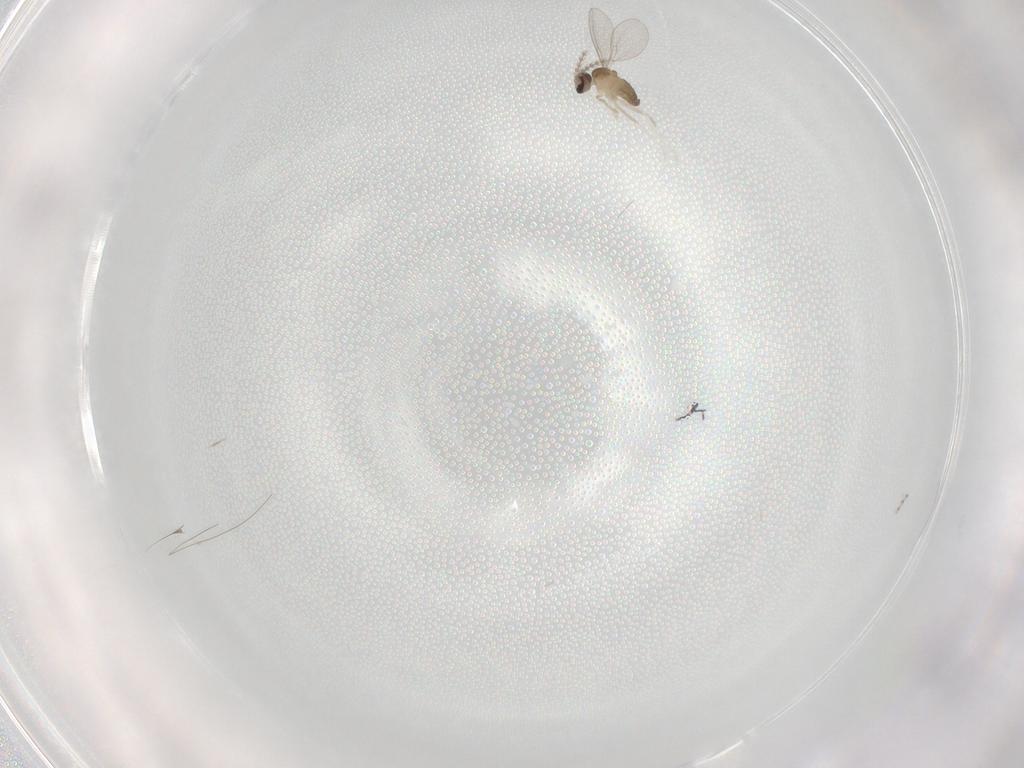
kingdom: Animalia
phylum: Arthropoda
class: Insecta
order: Diptera
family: Cecidomyiidae
